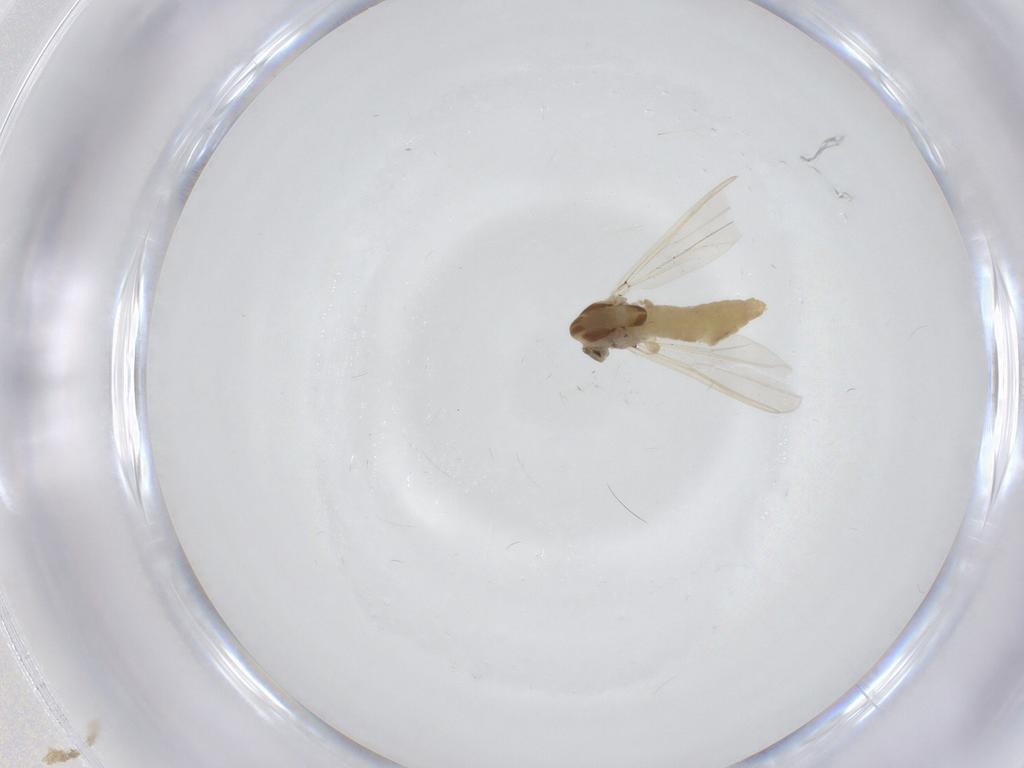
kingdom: Animalia
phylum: Arthropoda
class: Insecta
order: Diptera
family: Chironomidae
